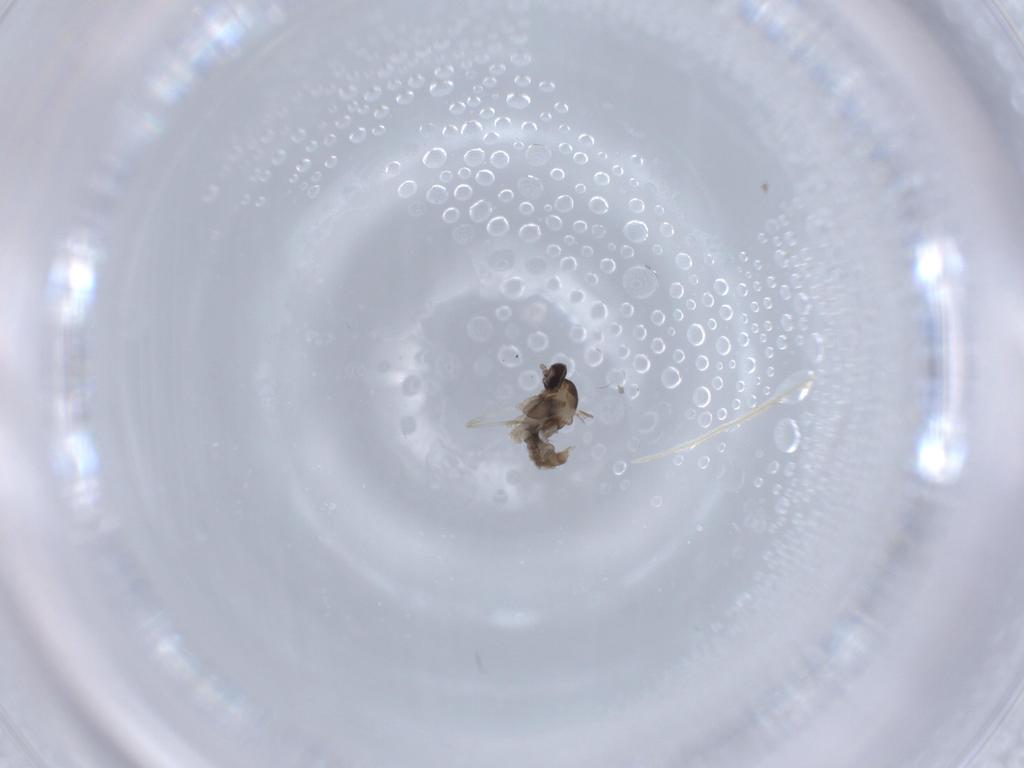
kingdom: Animalia
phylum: Arthropoda
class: Insecta
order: Diptera
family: Cecidomyiidae
